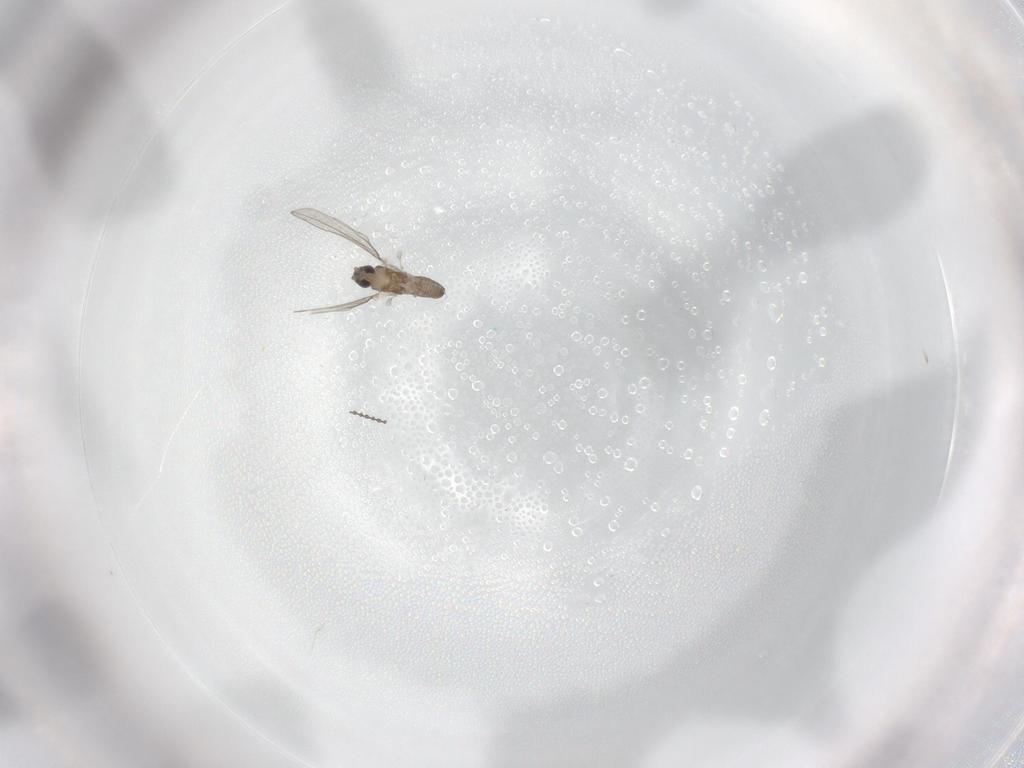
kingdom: Animalia
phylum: Arthropoda
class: Insecta
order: Diptera
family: Cecidomyiidae
